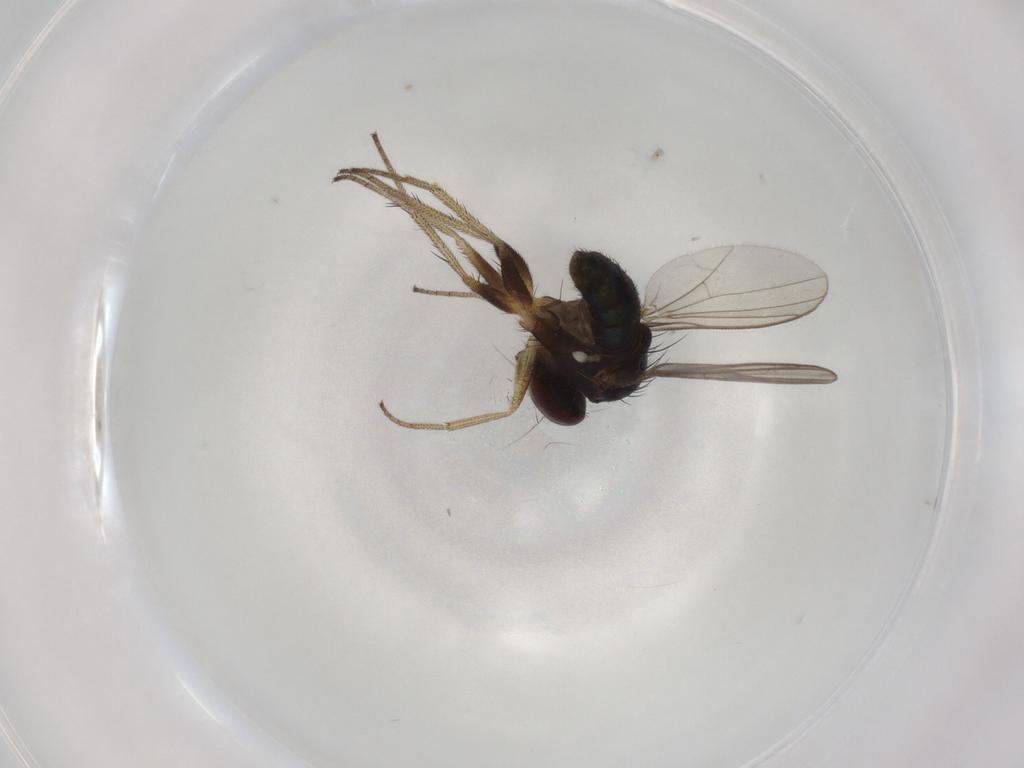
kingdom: Animalia
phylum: Arthropoda
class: Insecta
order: Diptera
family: Dolichopodidae
